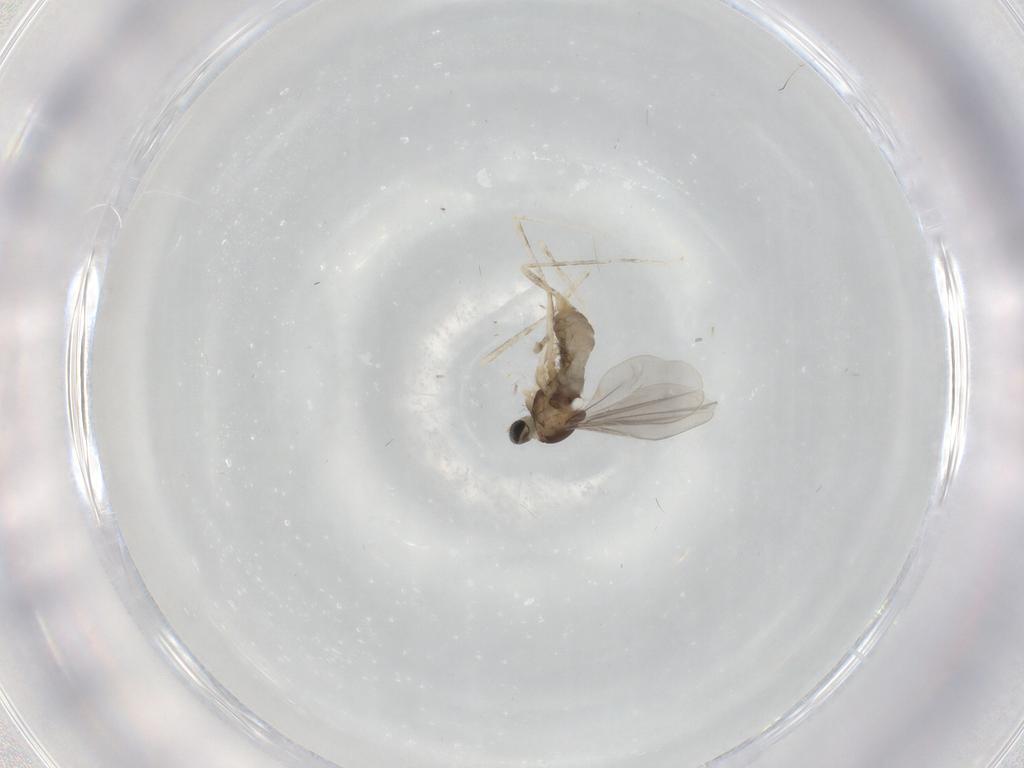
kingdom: Animalia
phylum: Arthropoda
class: Insecta
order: Diptera
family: Cecidomyiidae
